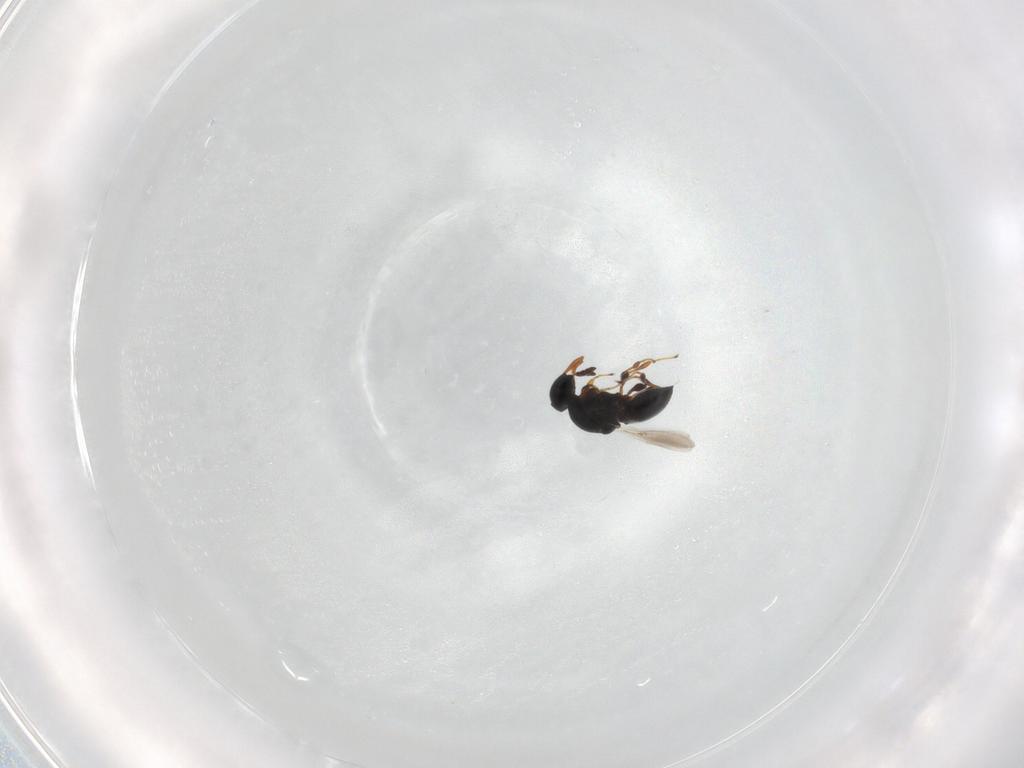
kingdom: Animalia
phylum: Arthropoda
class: Insecta
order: Hymenoptera
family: Platygastridae
